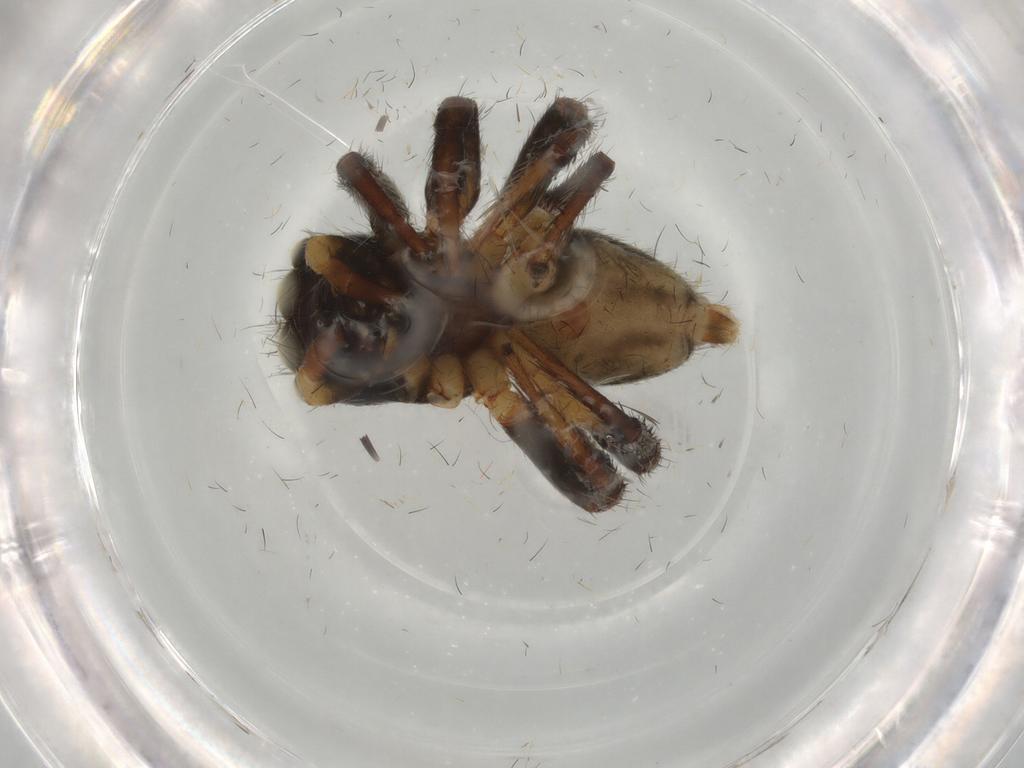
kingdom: Animalia
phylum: Arthropoda
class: Arachnida
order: Araneae
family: Salticidae
